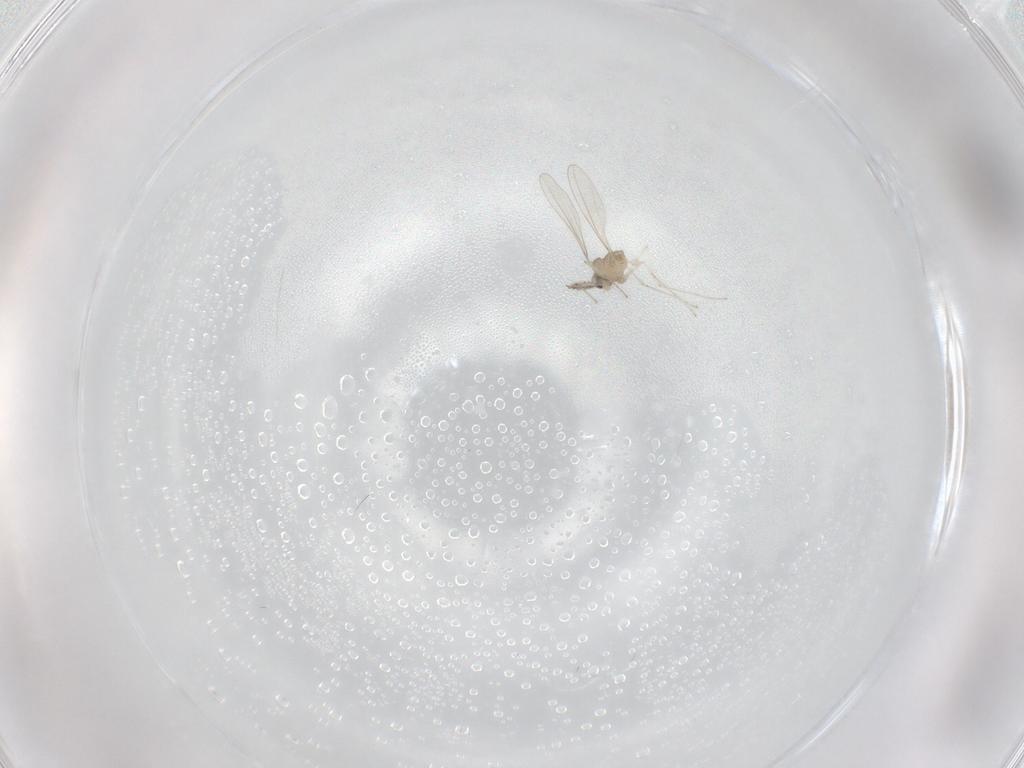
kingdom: Animalia
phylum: Arthropoda
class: Insecta
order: Diptera
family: Cecidomyiidae
